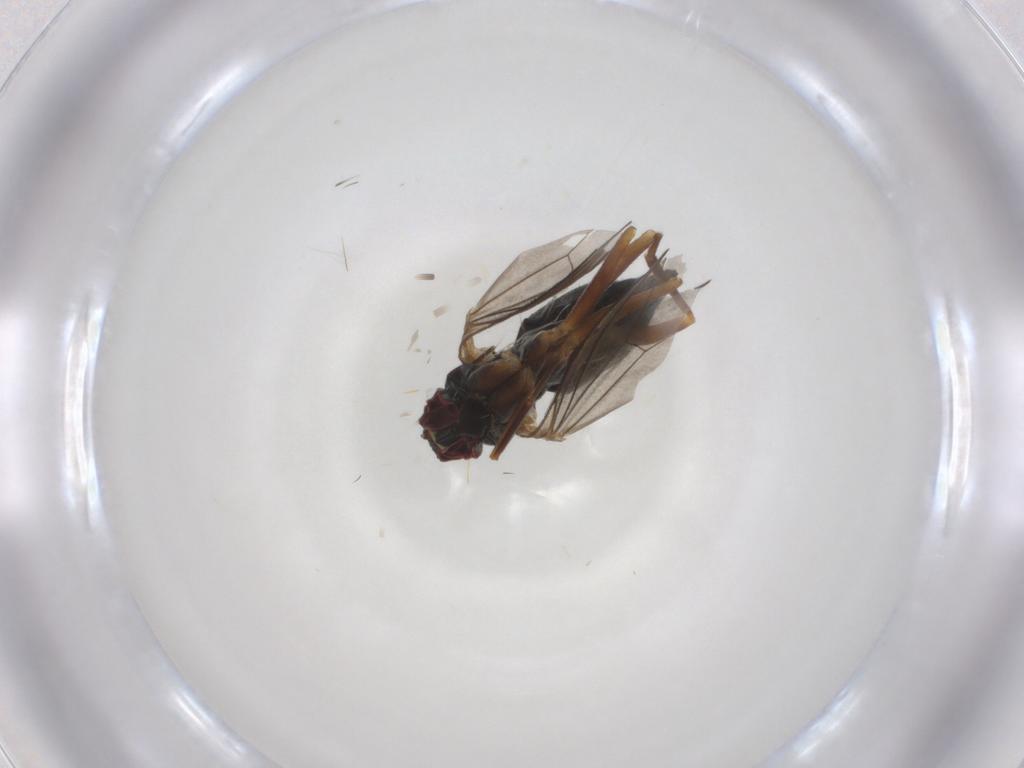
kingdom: Animalia
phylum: Arthropoda
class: Insecta
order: Diptera
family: Dolichopodidae
